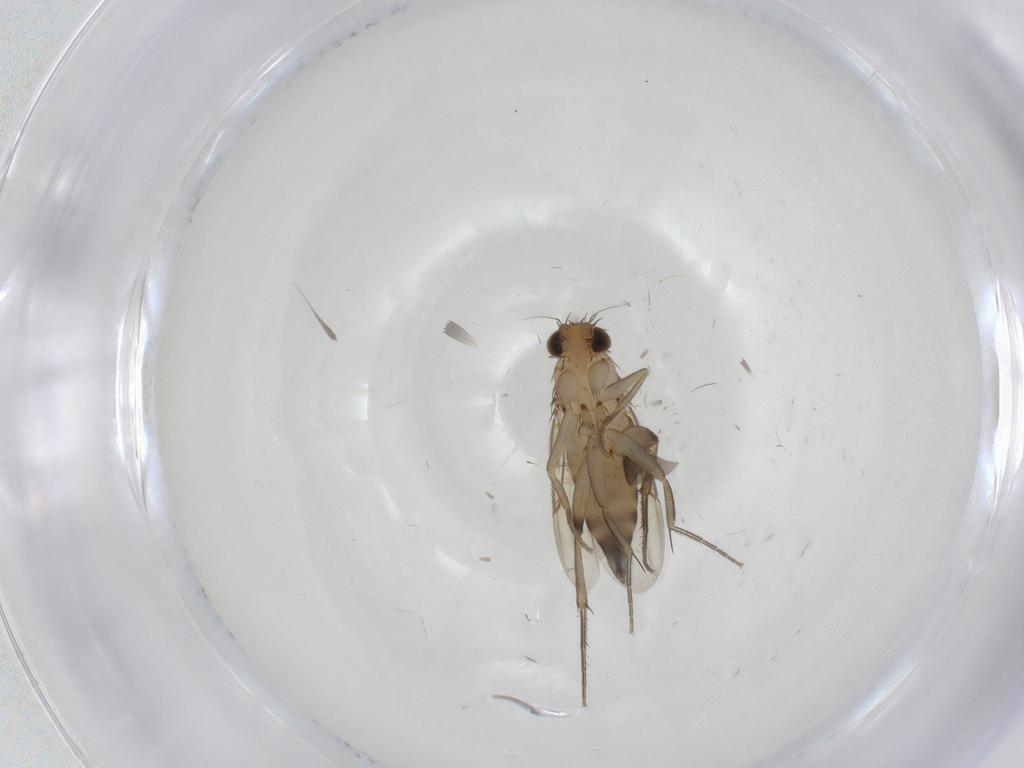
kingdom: Animalia
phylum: Arthropoda
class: Insecta
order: Diptera
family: Phoridae
